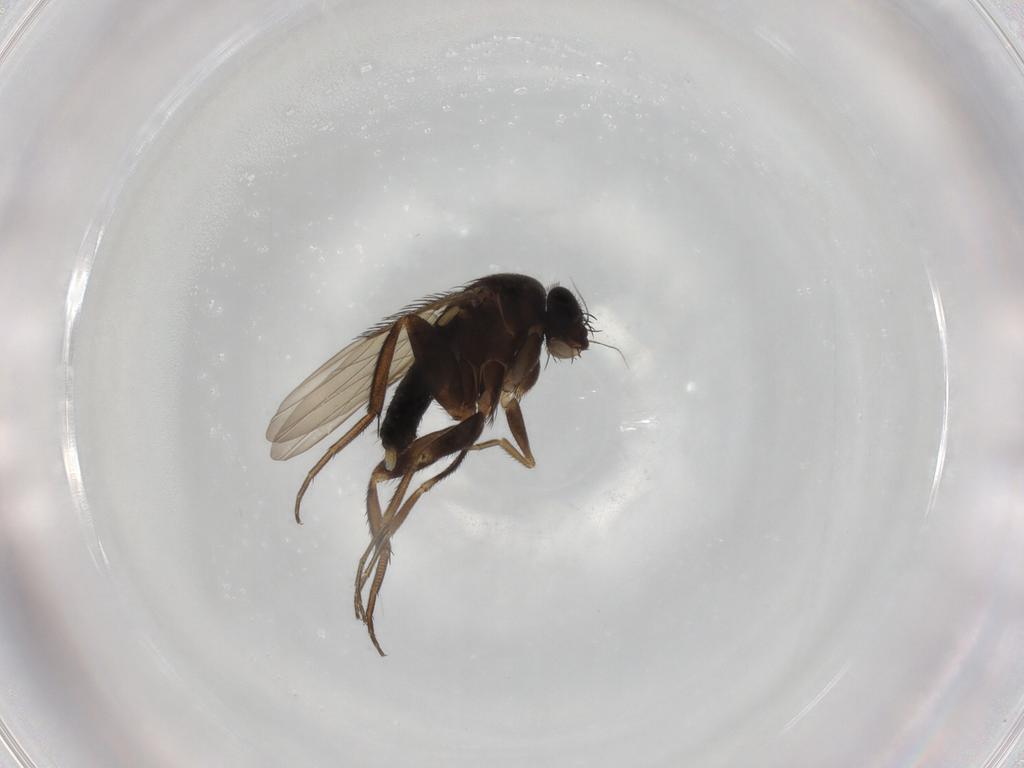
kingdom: Animalia
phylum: Arthropoda
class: Insecta
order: Diptera
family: Phoridae
